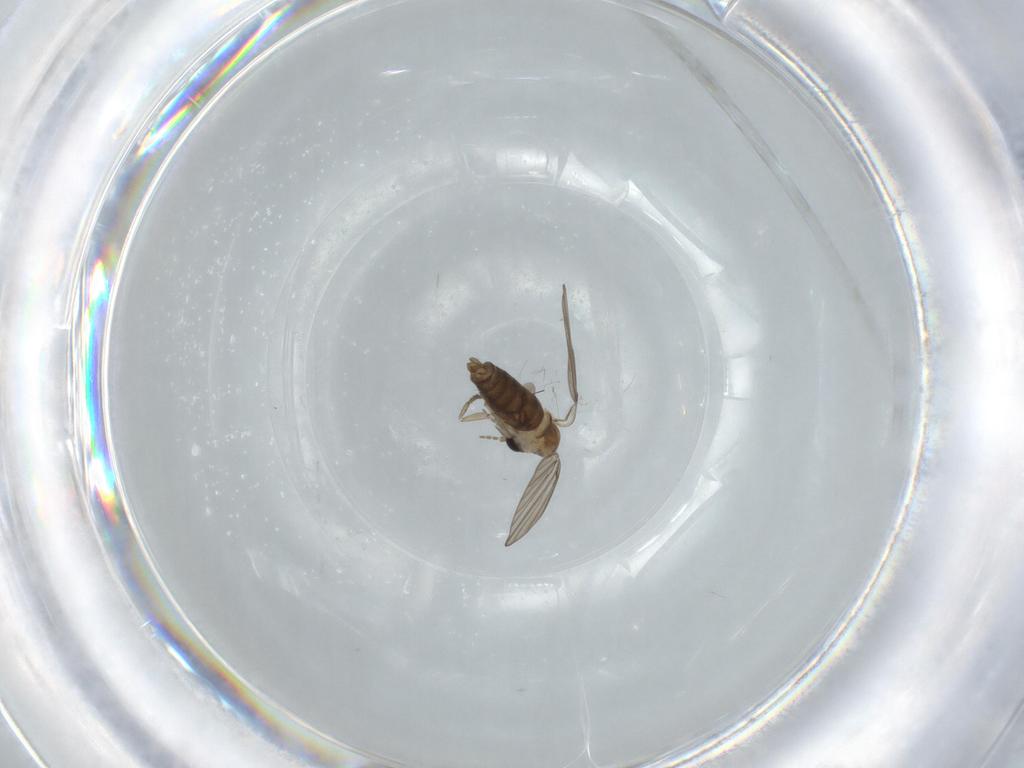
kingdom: Animalia
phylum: Arthropoda
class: Insecta
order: Diptera
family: Psychodidae
